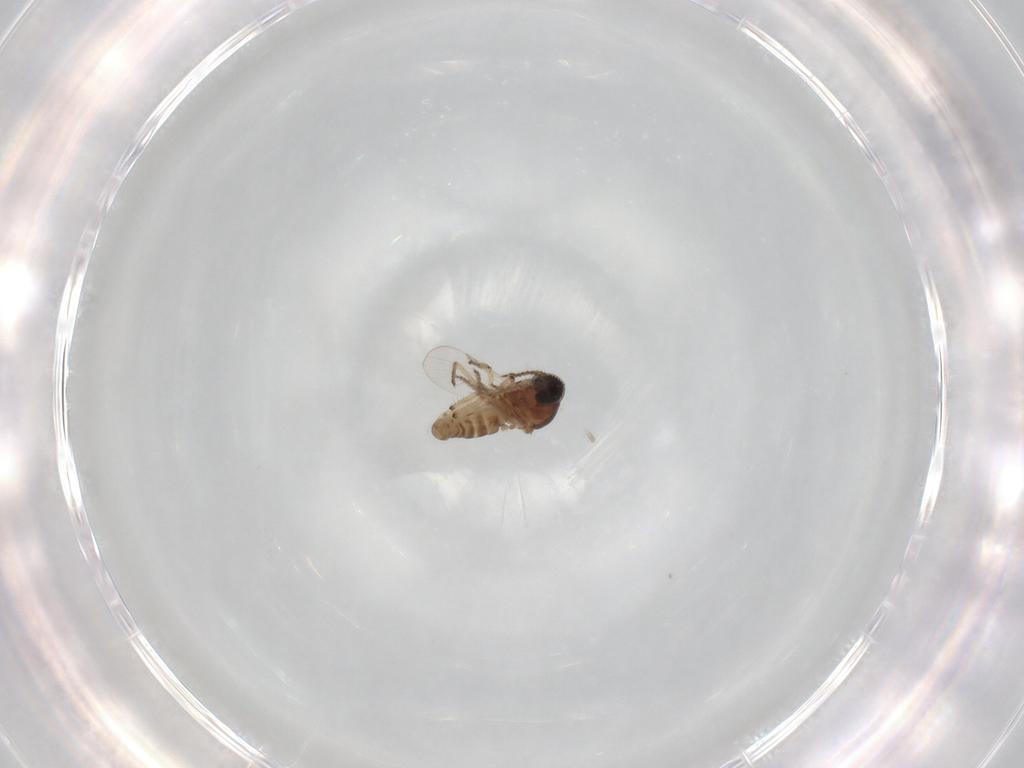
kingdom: Animalia
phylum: Arthropoda
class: Insecta
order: Diptera
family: Ceratopogonidae
